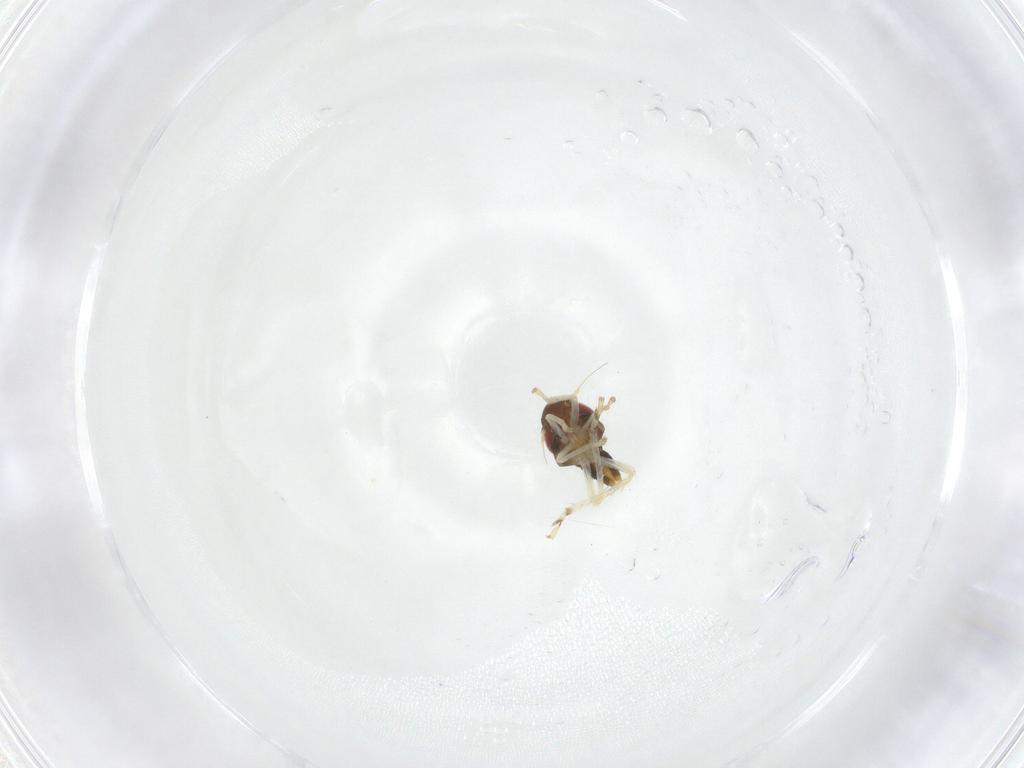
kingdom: Animalia
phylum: Arthropoda
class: Insecta
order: Hemiptera
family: Cicadellidae
